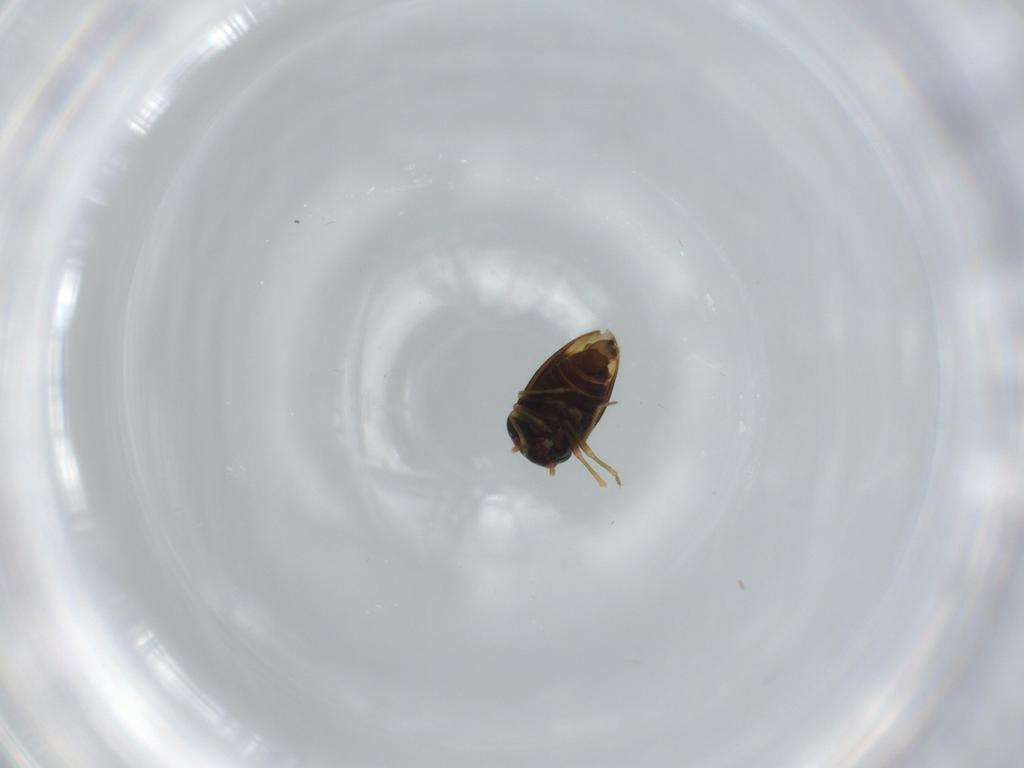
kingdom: Animalia
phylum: Arthropoda
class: Insecta
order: Hemiptera
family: Schizopteridae
